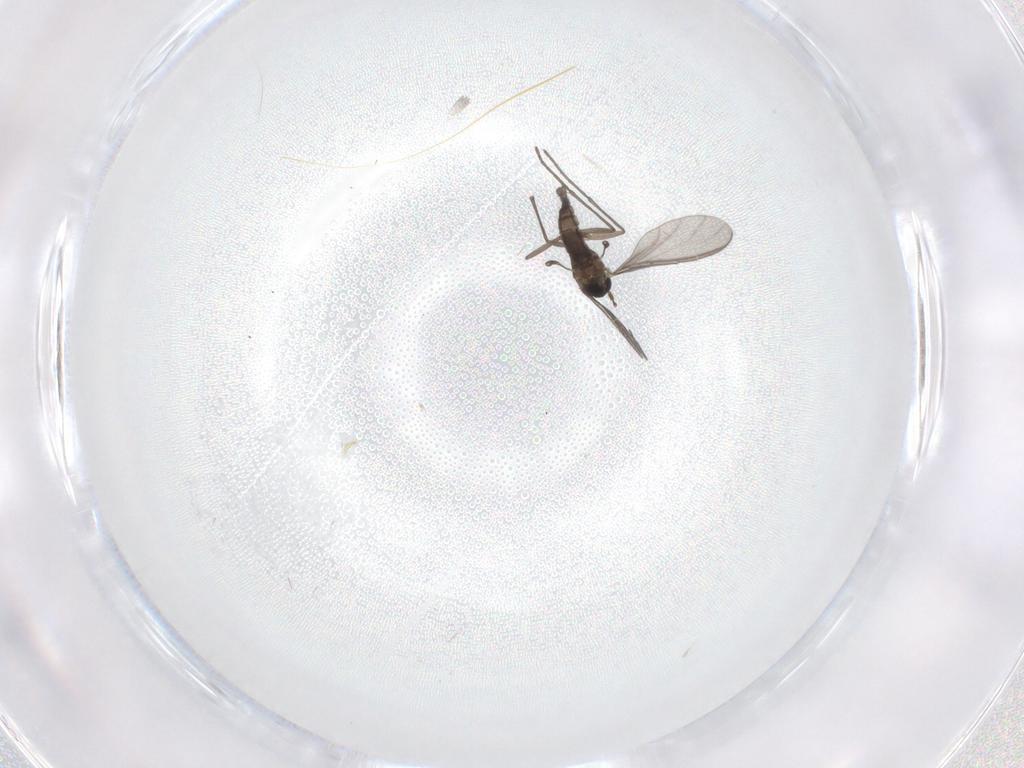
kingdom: Animalia
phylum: Arthropoda
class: Insecta
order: Diptera
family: Sciaridae
